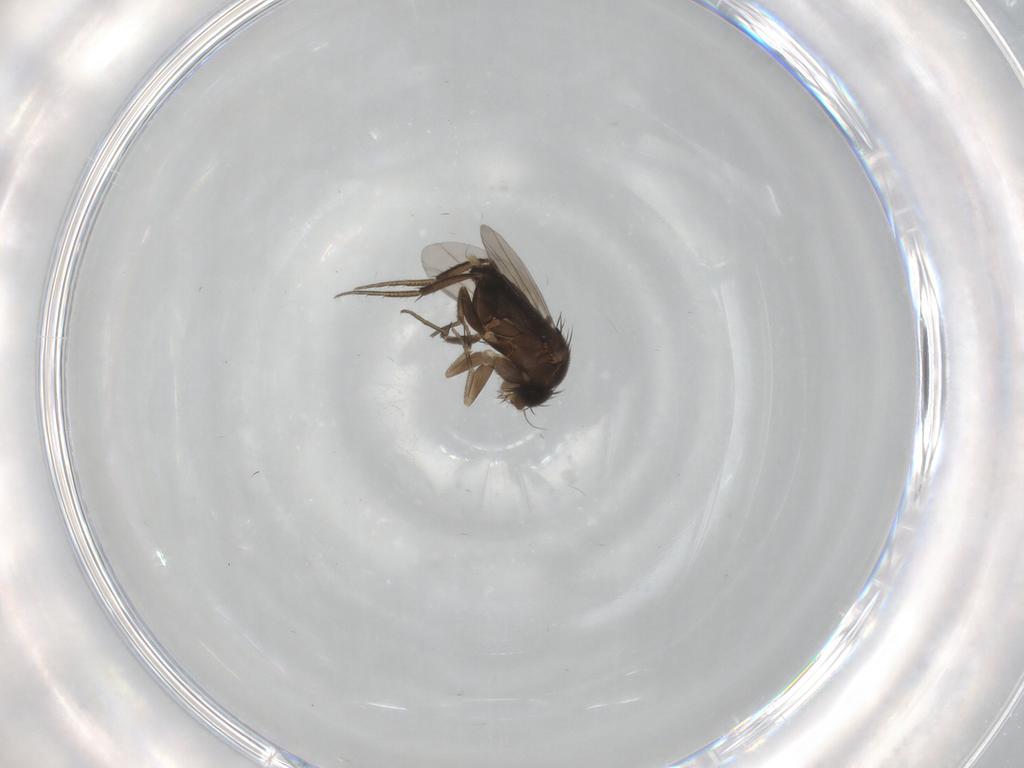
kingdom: Animalia
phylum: Arthropoda
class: Insecta
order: Diptera
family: Phoridae
